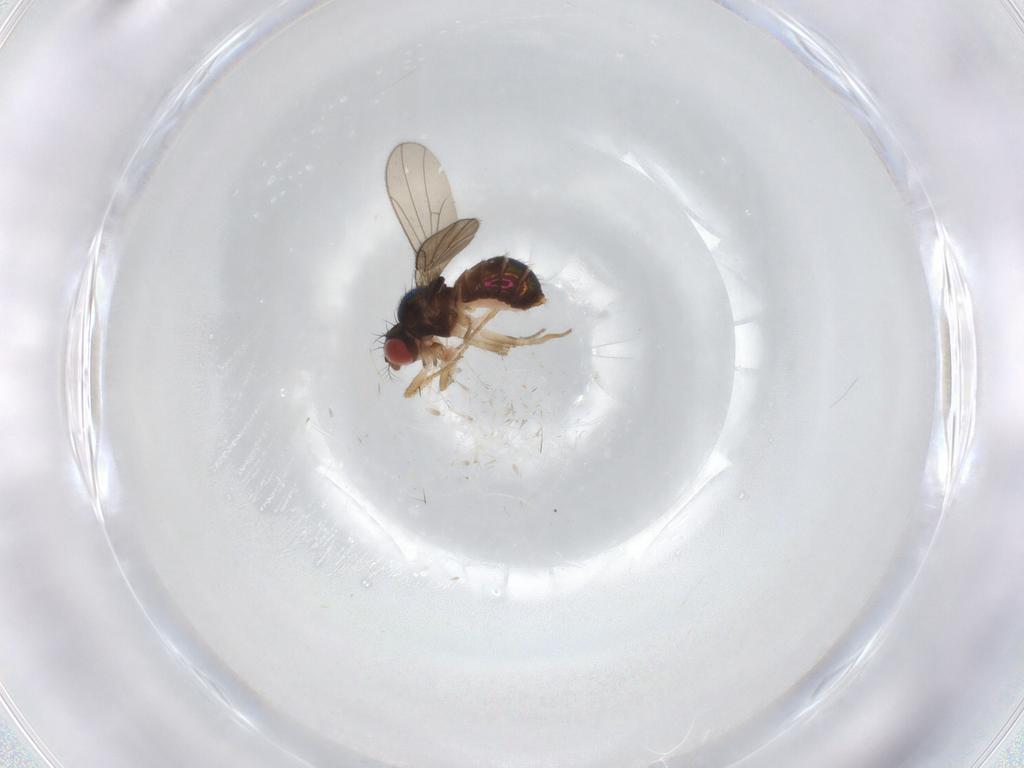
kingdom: Animalia
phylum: Arthropoda
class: Insecta
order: Diptera
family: Drosophilidae
